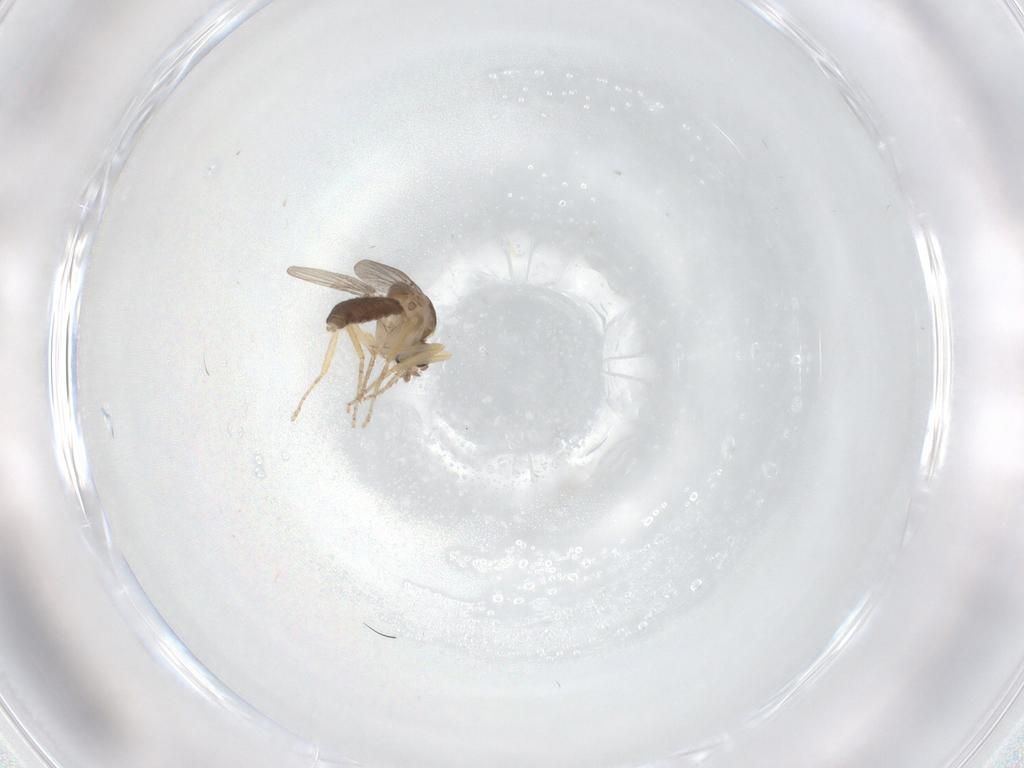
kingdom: Animalia
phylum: Arthropoda
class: Insecta
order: Diptera
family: Ceratopogonidae
